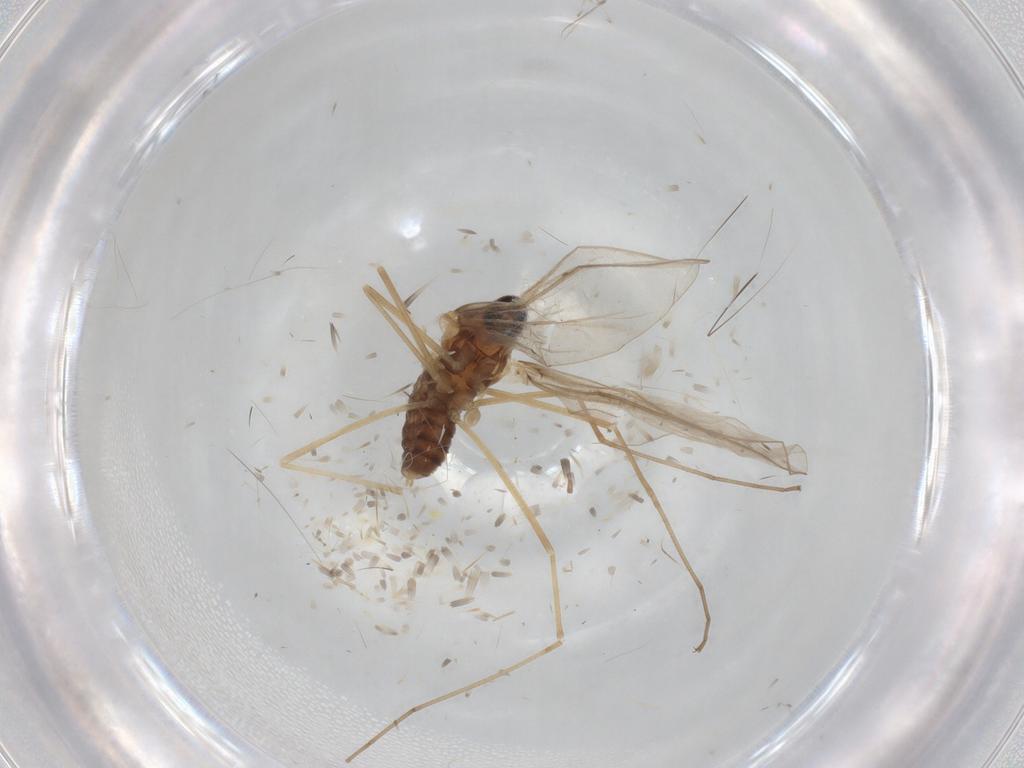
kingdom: Animalia
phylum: Arthropoda
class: Insecta
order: Diptera
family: Cecidomyiidae
